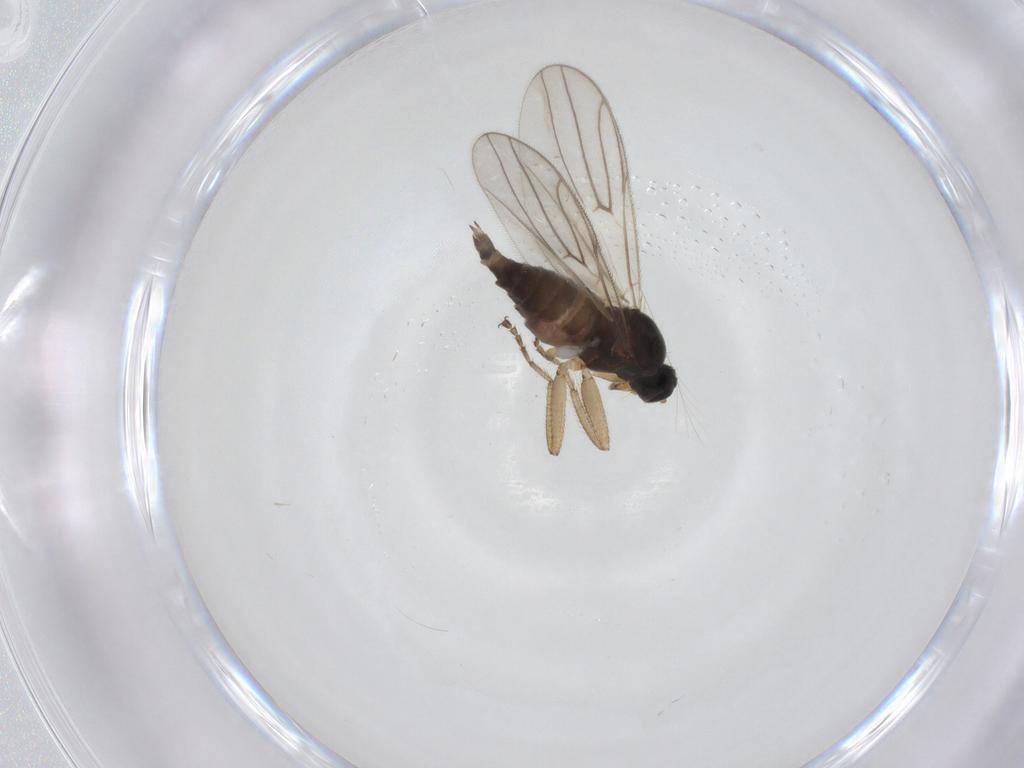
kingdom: Animalia
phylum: Arthropoda
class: Insecta
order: Diptera
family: Hybotidae
